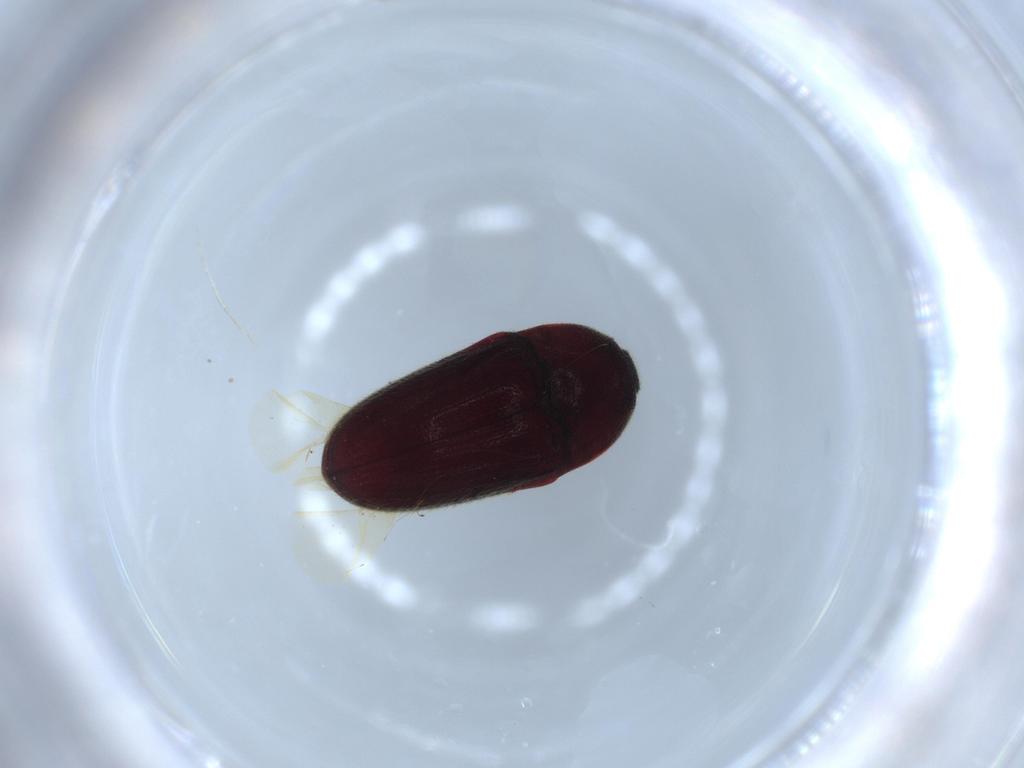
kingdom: Animalia
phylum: Arthropoda
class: Insecta
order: Coleoptera
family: Throscidae
